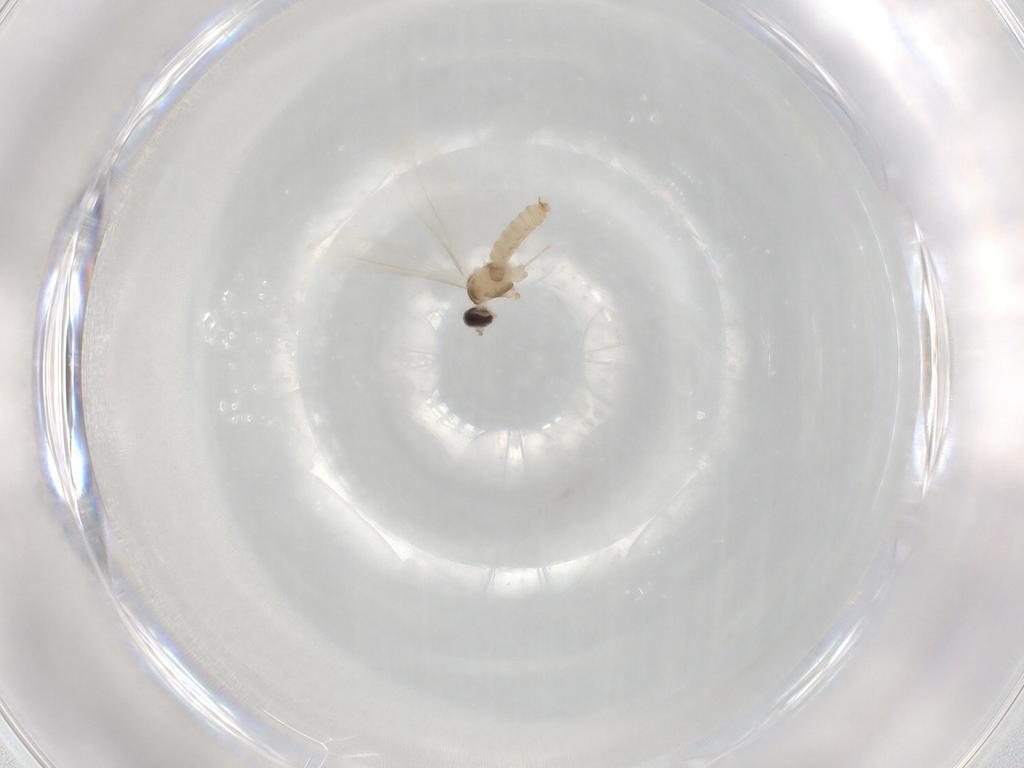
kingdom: Animalia
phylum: Arthropoda
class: Insecta
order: Diptera
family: Cecidomyiidae
